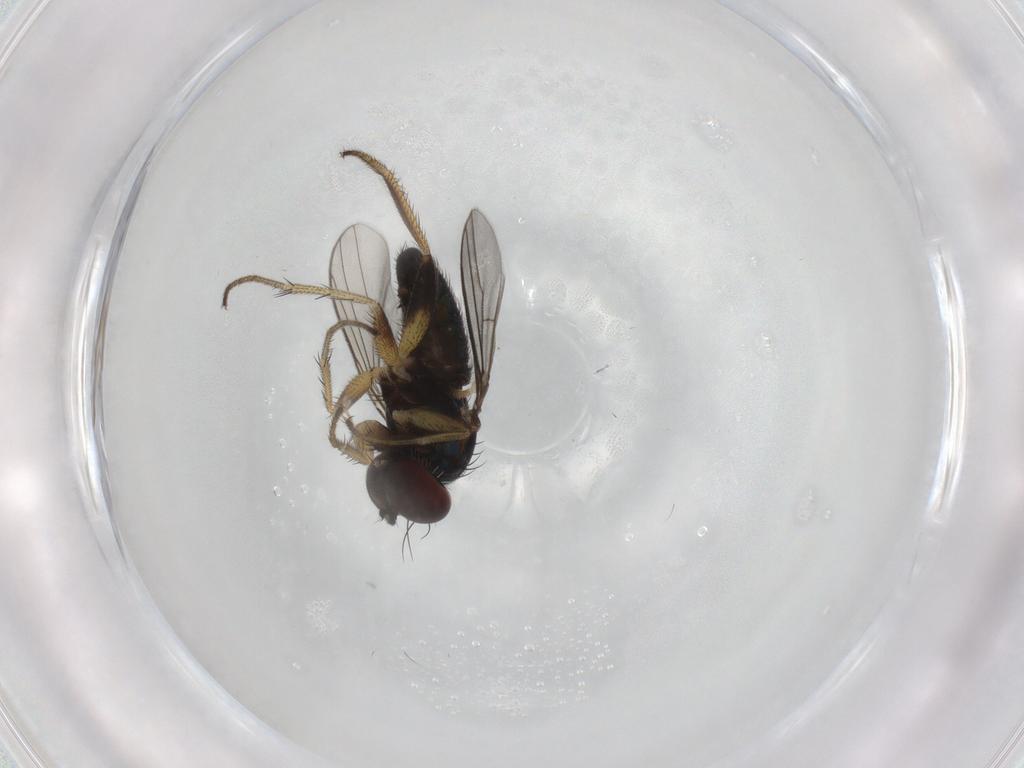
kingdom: Animalia
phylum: Arthropoda
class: Insecta
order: Diptera
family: Dolichopodidae
